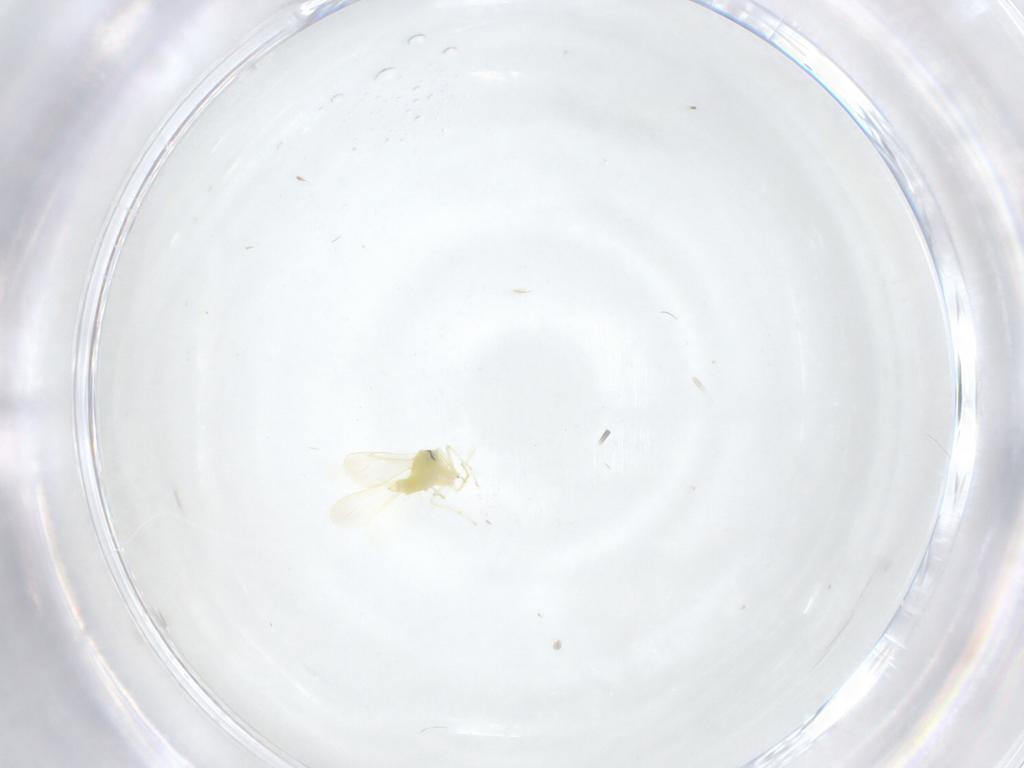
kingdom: Animalia
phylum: Arthropoda
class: Insecta
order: Hemiptera
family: Aleyrodidae
